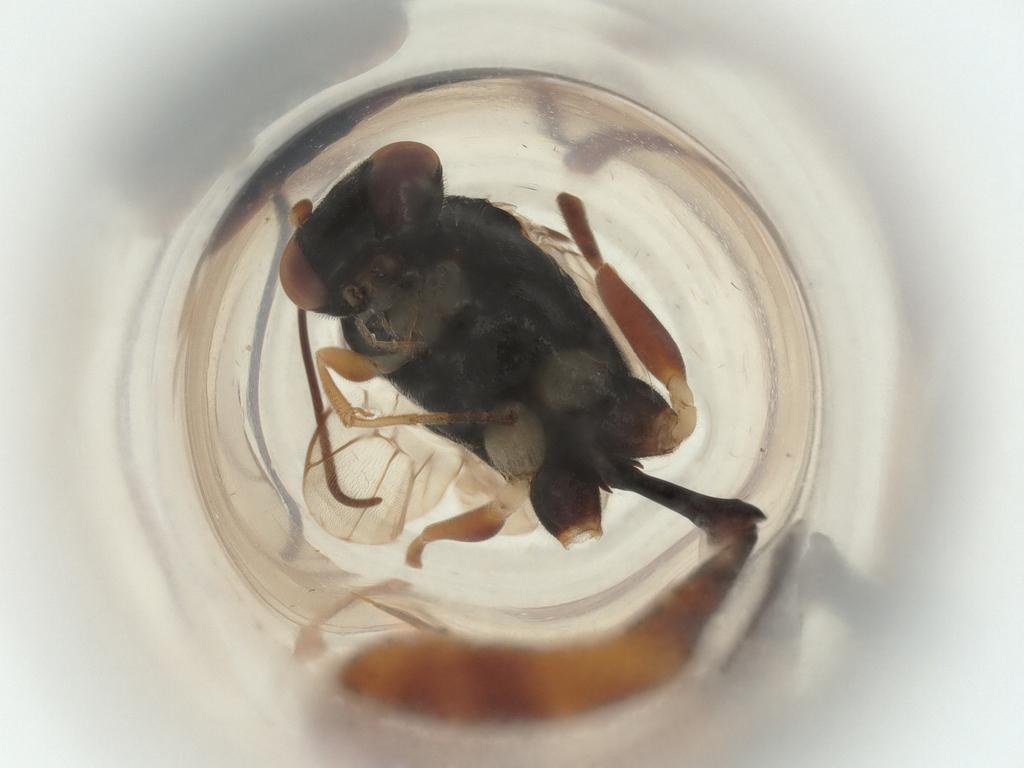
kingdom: Animalia
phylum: Arthropoda
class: Insecta
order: Hymenoptera
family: Ichneumonidae
